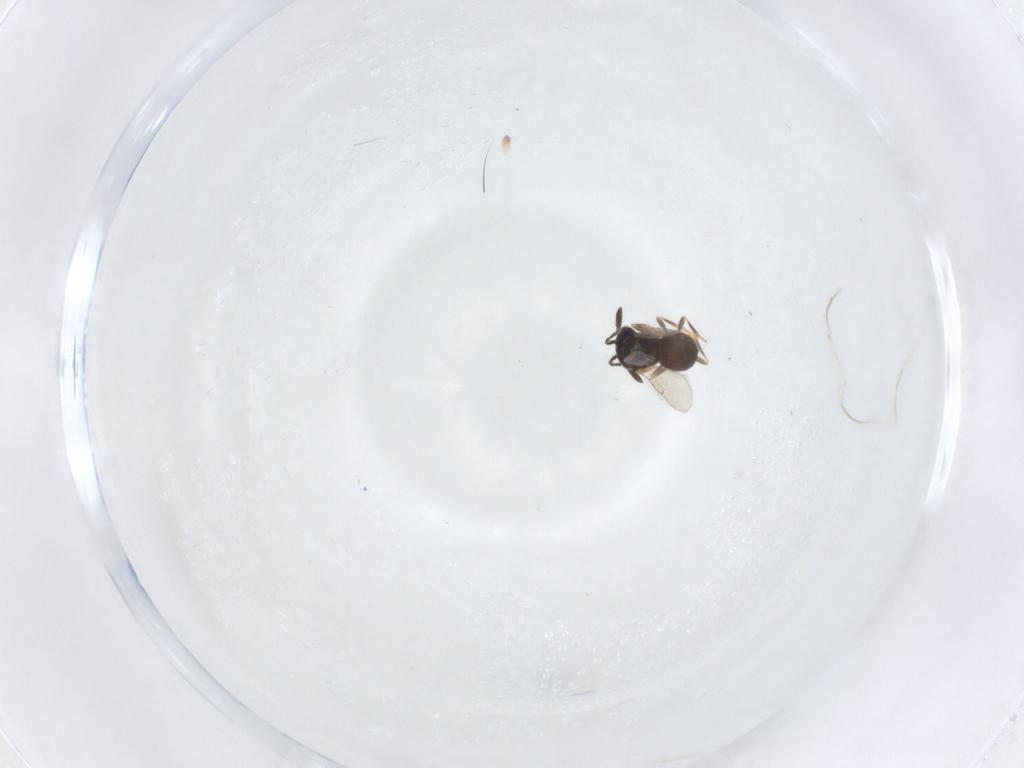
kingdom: Animalia
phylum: Arthropoda
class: Insecta
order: Hymenoptera
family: Scelionidae
